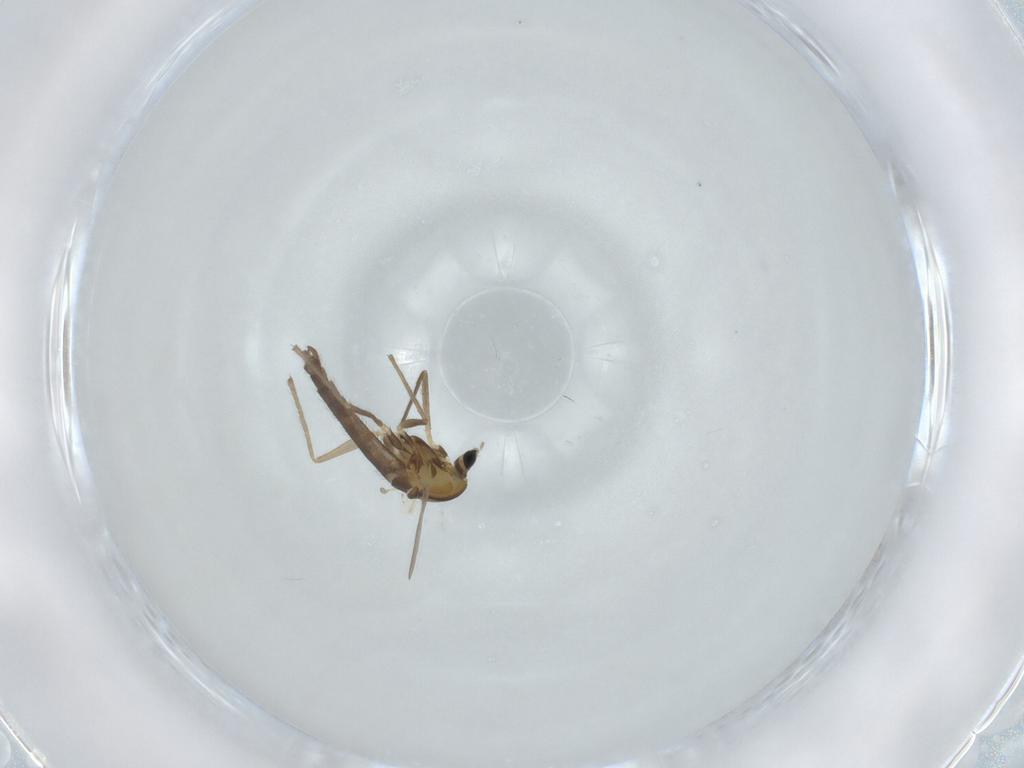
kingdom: Animalia
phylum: Arthropoda
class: Insecta
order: Diptera
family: Chironomidae
